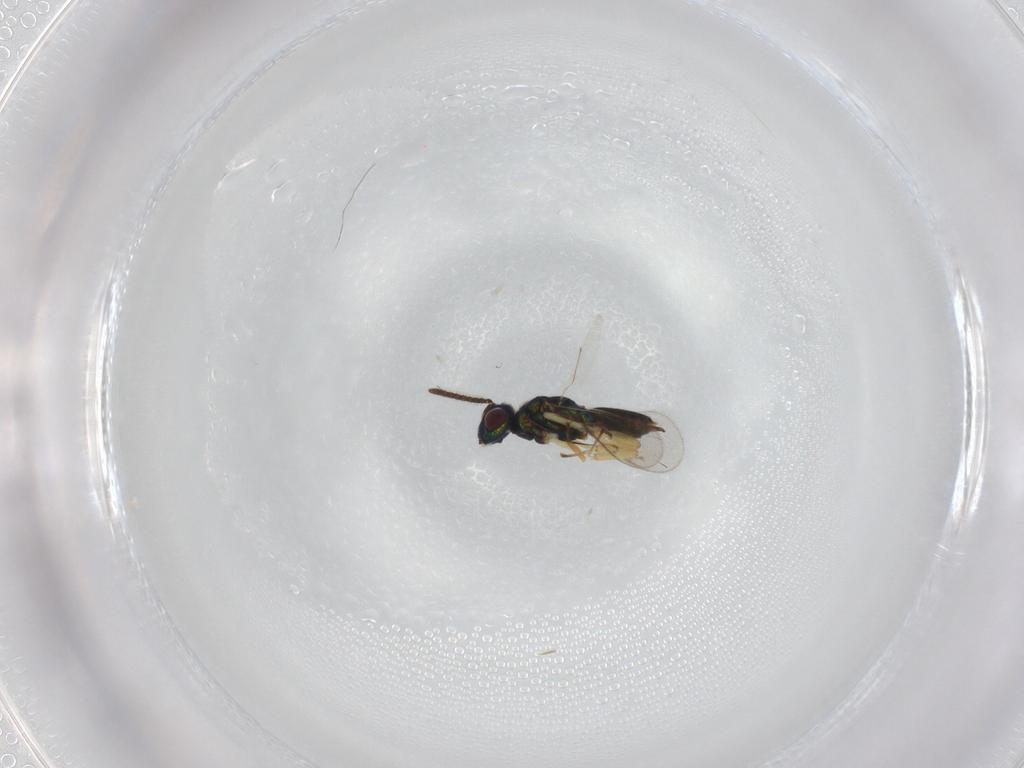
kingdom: Animalia
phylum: Arthropoda
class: Insecta
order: Hymenoptera
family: Eupelmidae
